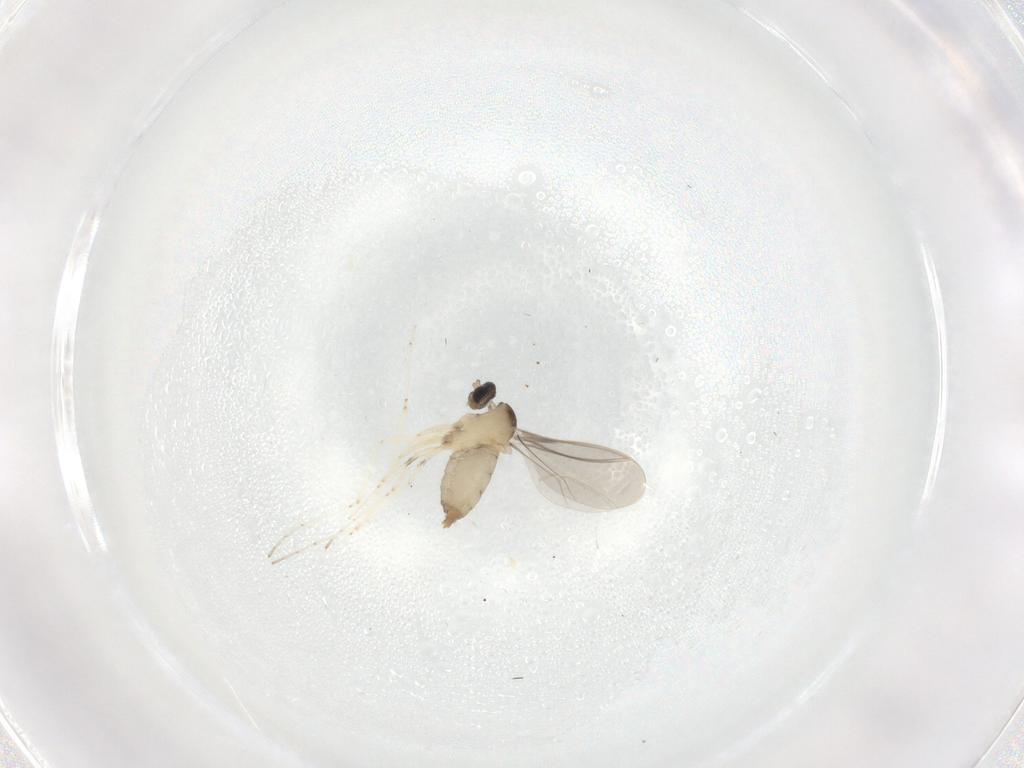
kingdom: Animalia
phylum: Arthropoda
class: Insecta
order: Diptera
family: Cecidomyiidae
